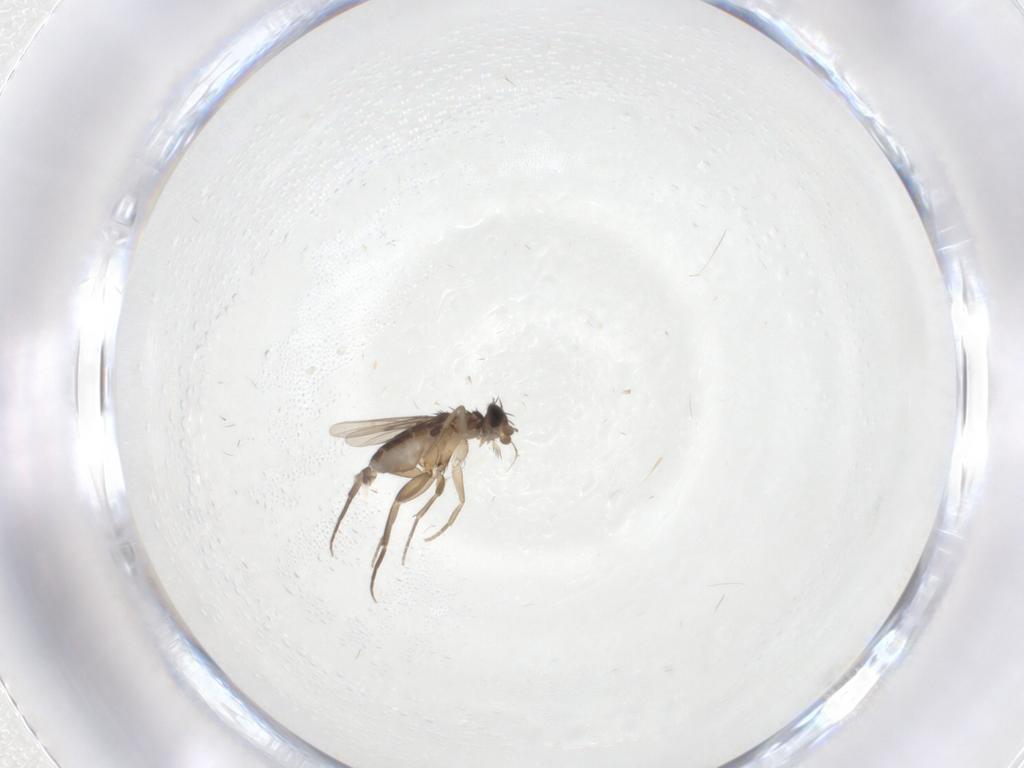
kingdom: Animalia
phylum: Arthropoda
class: Insecta
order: Diptera
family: Phoridae
